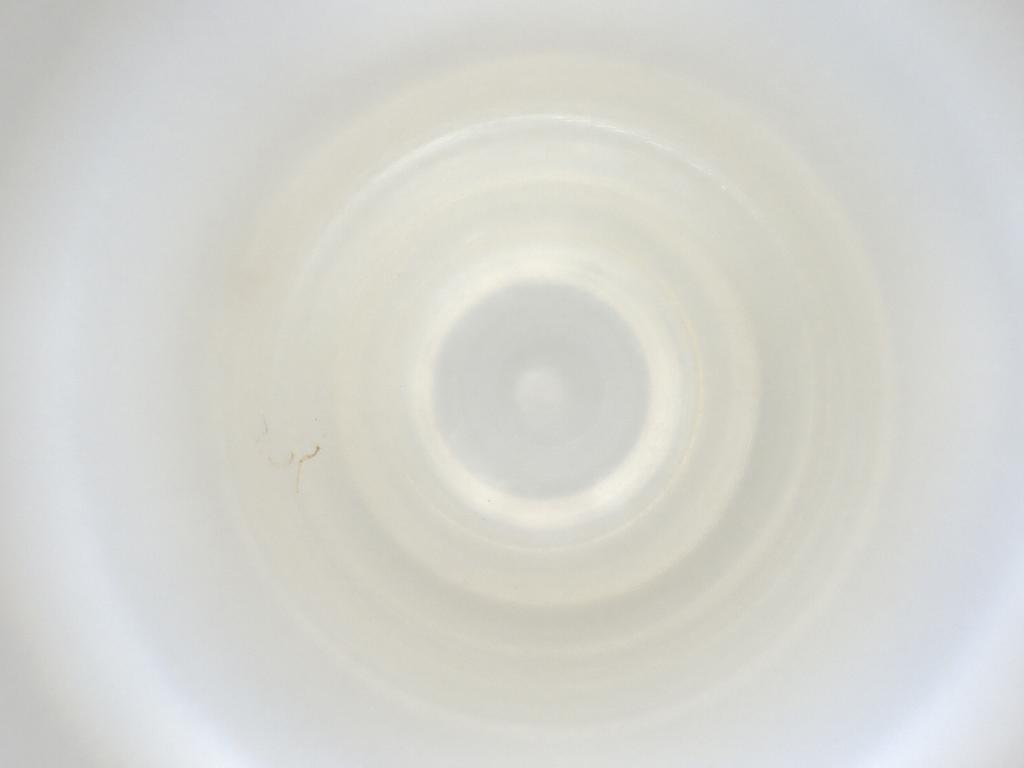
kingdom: Animalia
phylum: Arthropoda
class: Insecta
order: Diptera
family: Cecidomyiidae
